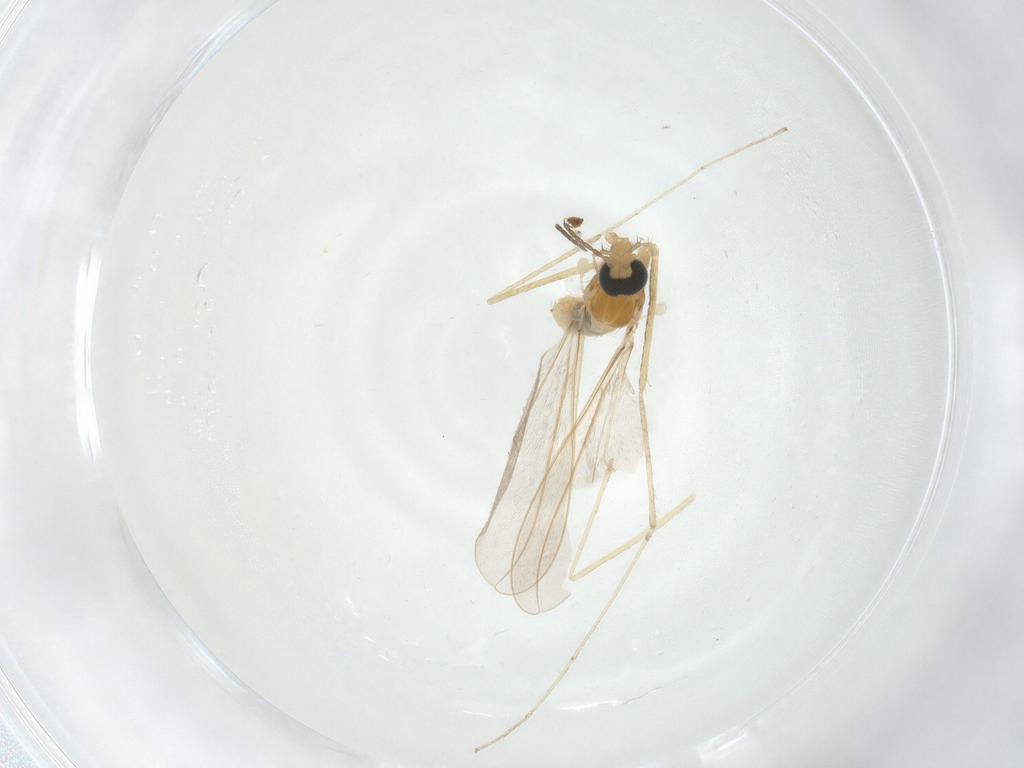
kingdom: Animalia
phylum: Arthropoda
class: Insecta
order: Diptera
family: Cecidomyiidae
